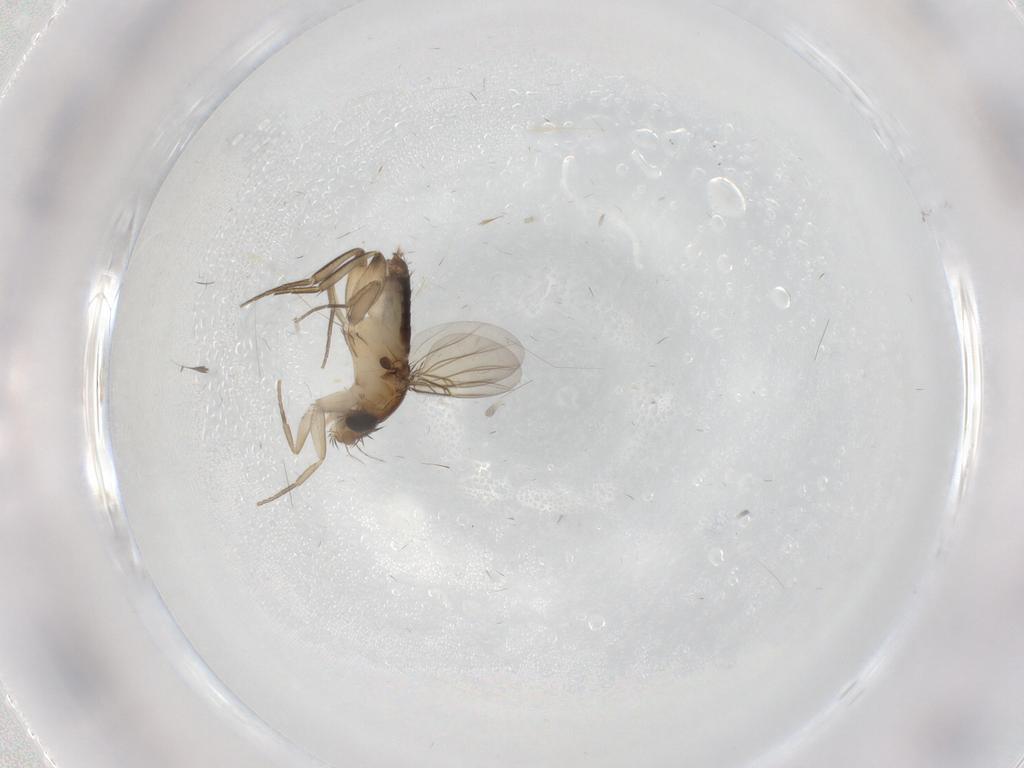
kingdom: Animalia
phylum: Arthropoda
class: Insecta
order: Diptera
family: Phoridae
